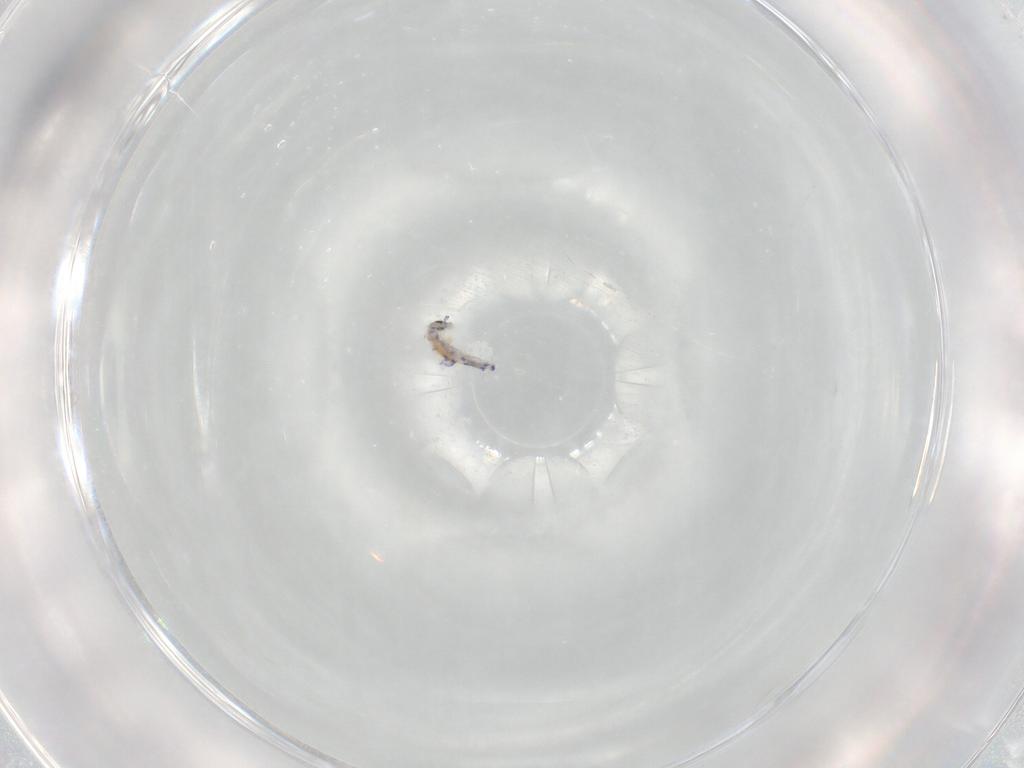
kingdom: Animalia
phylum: Arthropoda
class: Collembola
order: Entomobryomorpha
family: Entomobryidae
